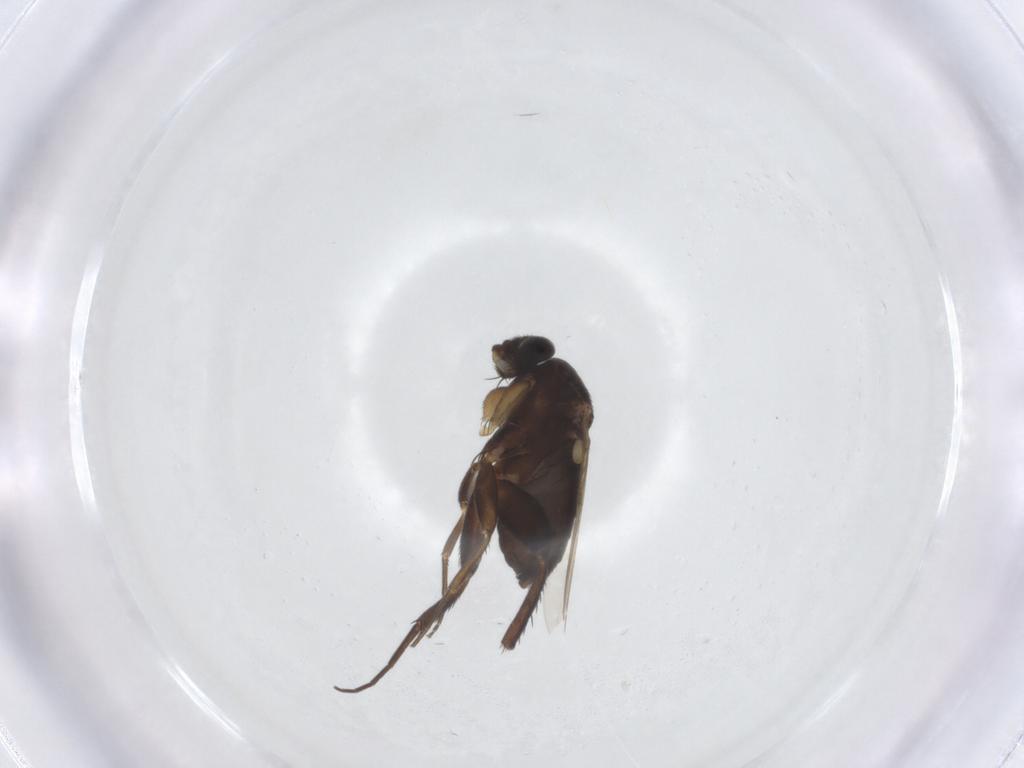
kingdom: Animalia
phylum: Arthropoda
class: Insecta
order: Diptera
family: Phoridae
